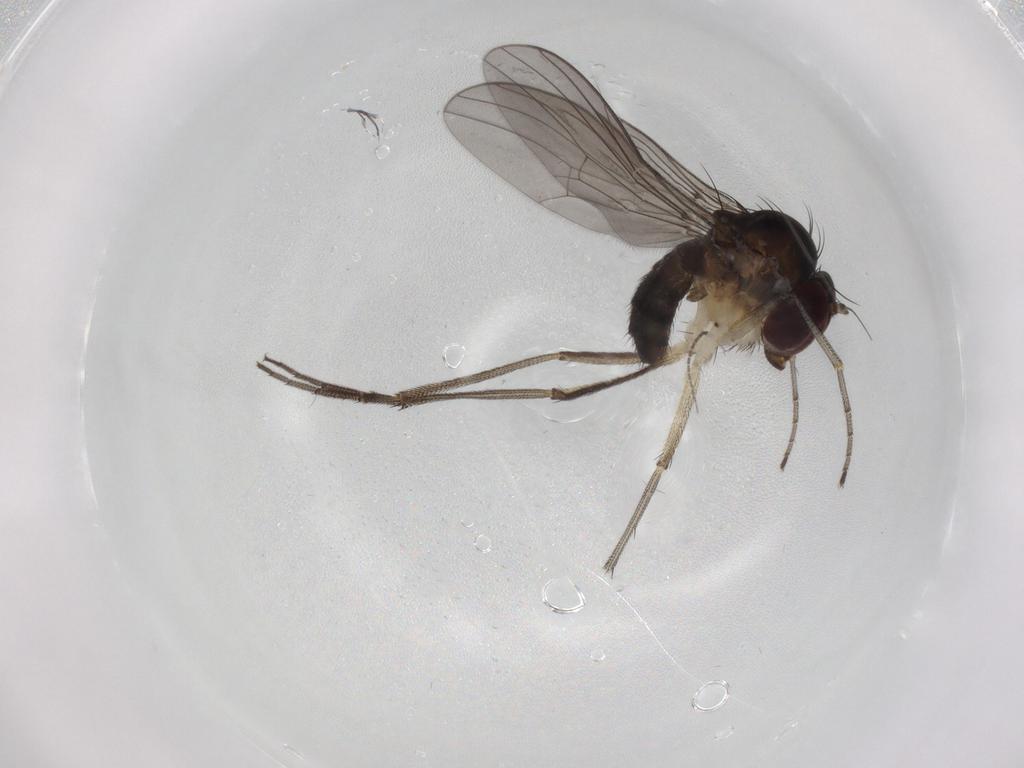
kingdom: Animalia
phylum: Arthropoda
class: Insecta
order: Diptera
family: Dolichopodidae
